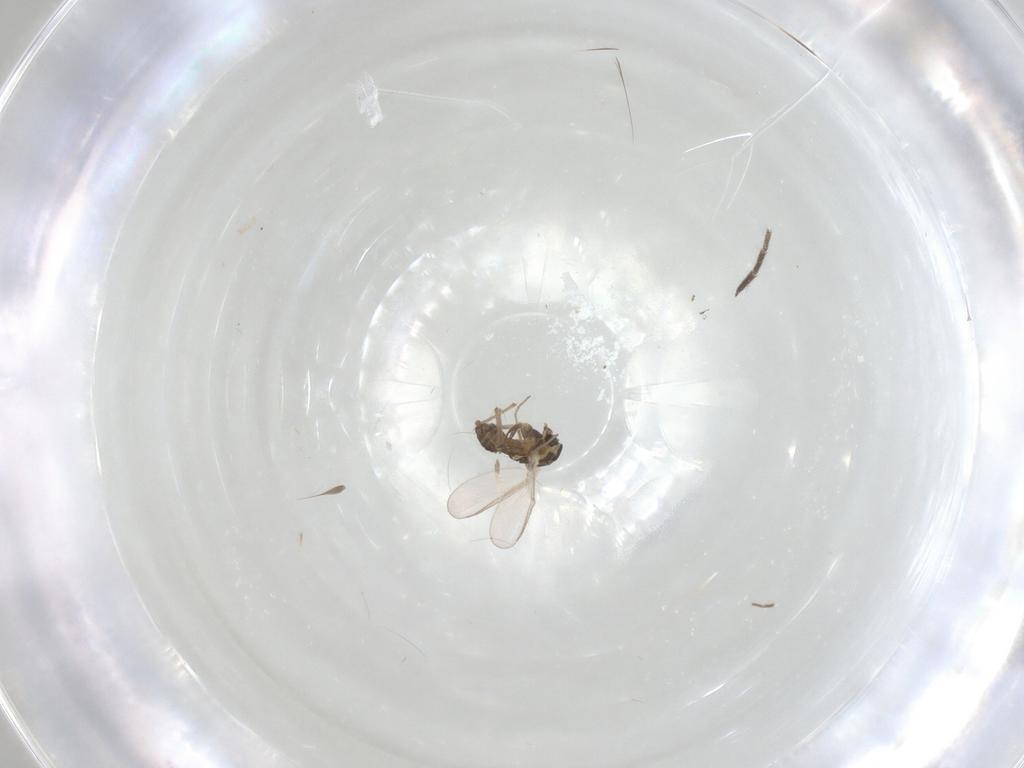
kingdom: Animalia
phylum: Arthropoda
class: Insecta
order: Diptera
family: Chironomidae
